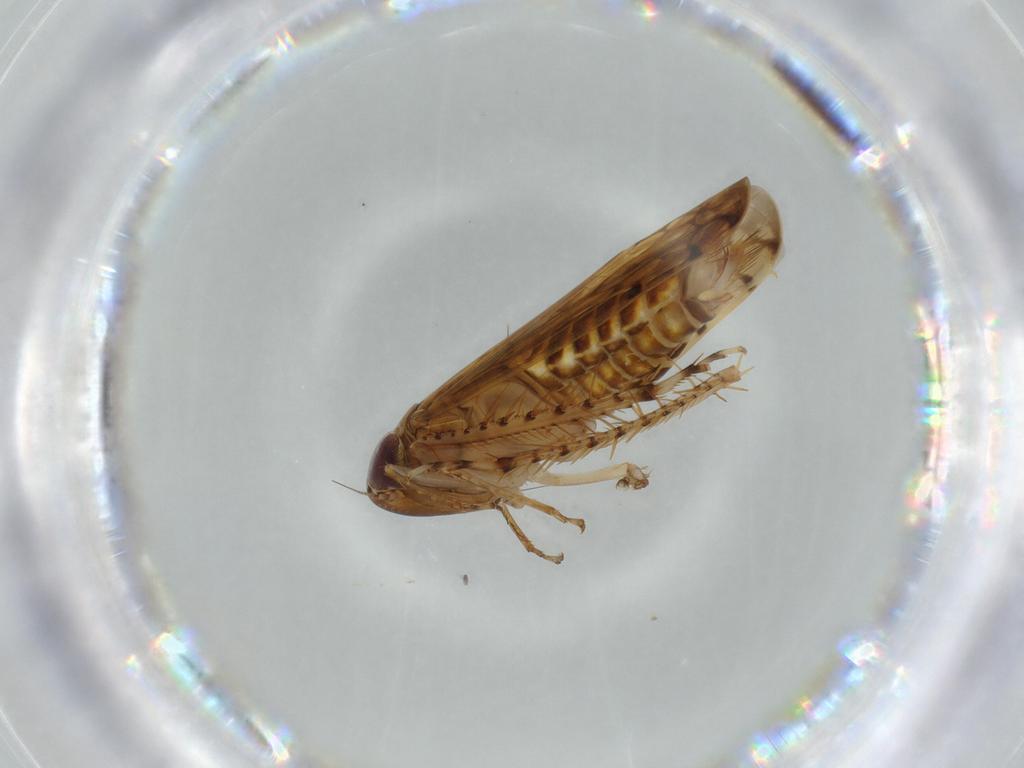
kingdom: Animalia
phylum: Arthropoda
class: Insecta
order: Hemiptera
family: Cicadellidae
